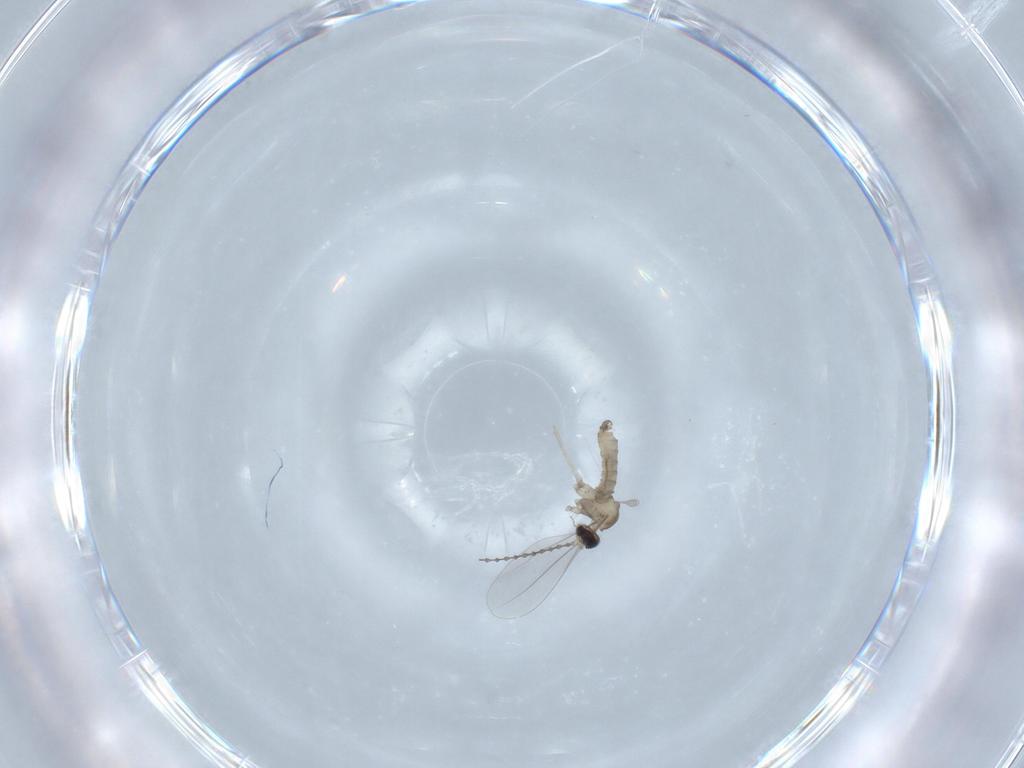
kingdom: Animalia
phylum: Arthropoda
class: Insecta
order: Diptera
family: Cecidomyiidae
